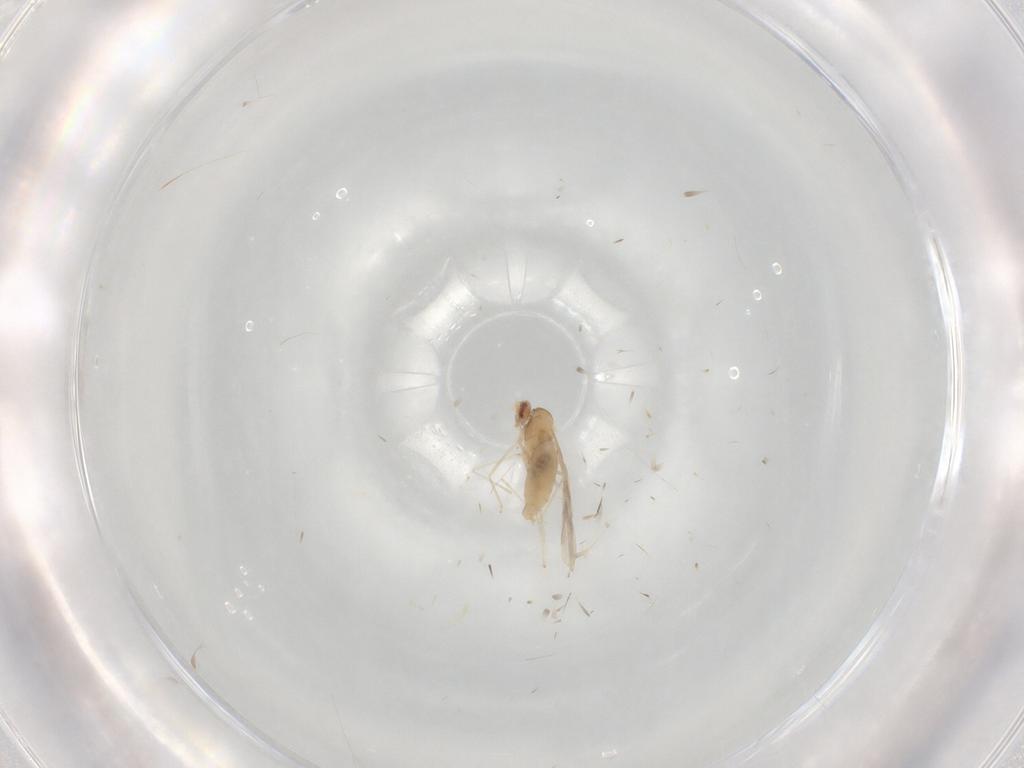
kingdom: Animalia
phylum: Arthropoda
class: Insecta
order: Diptera
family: Cecidomyiidae
